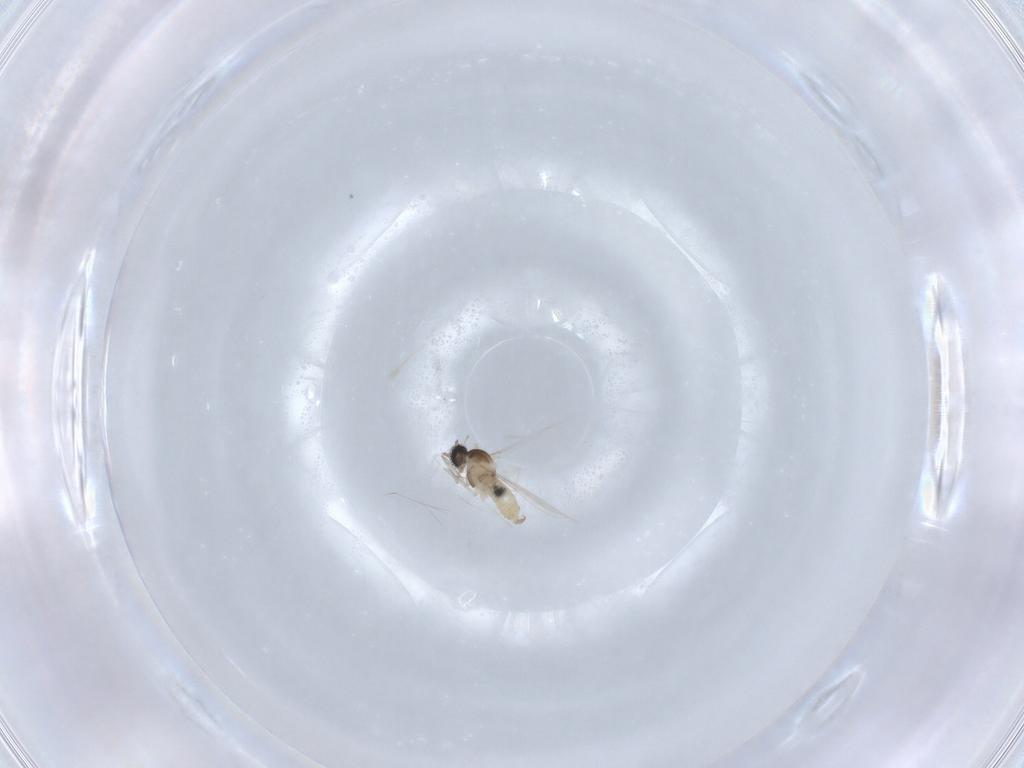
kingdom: Animalia
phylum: Arthropoda
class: Insecta
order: Diptera
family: Cecidomyiidae
